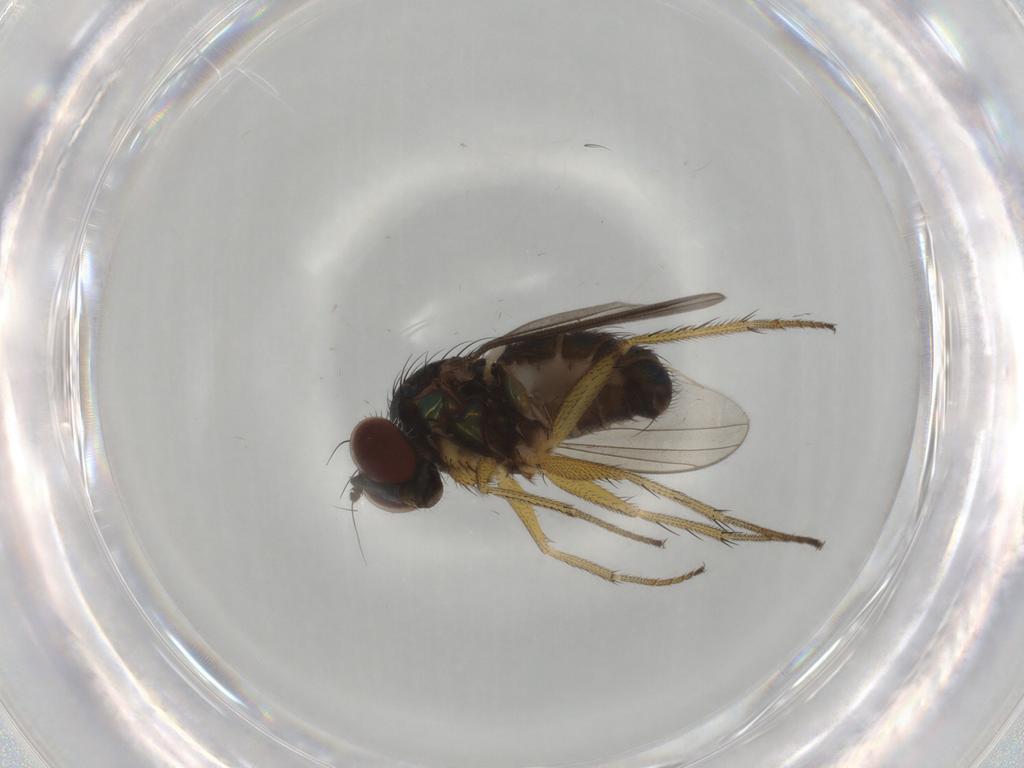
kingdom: Animalia
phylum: Arthropoda
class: Insecta
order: Diptera
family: Dolichopodidae
